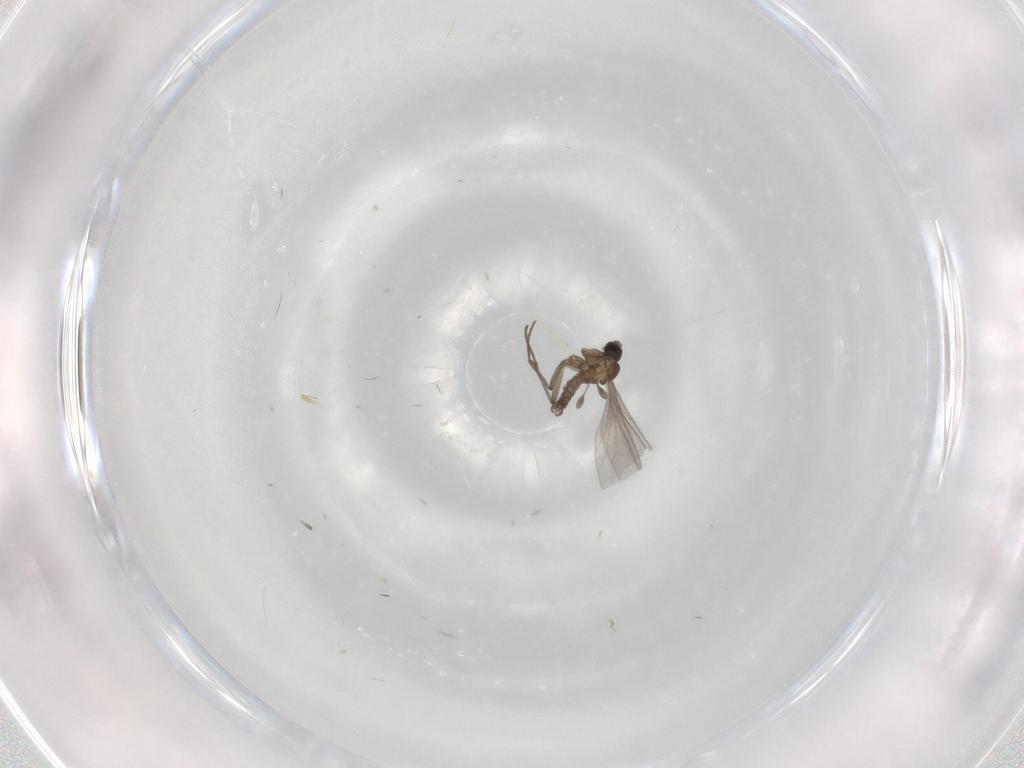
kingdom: Animalia
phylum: Arthropoda
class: Insecta
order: Diptera
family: Sciaridae
